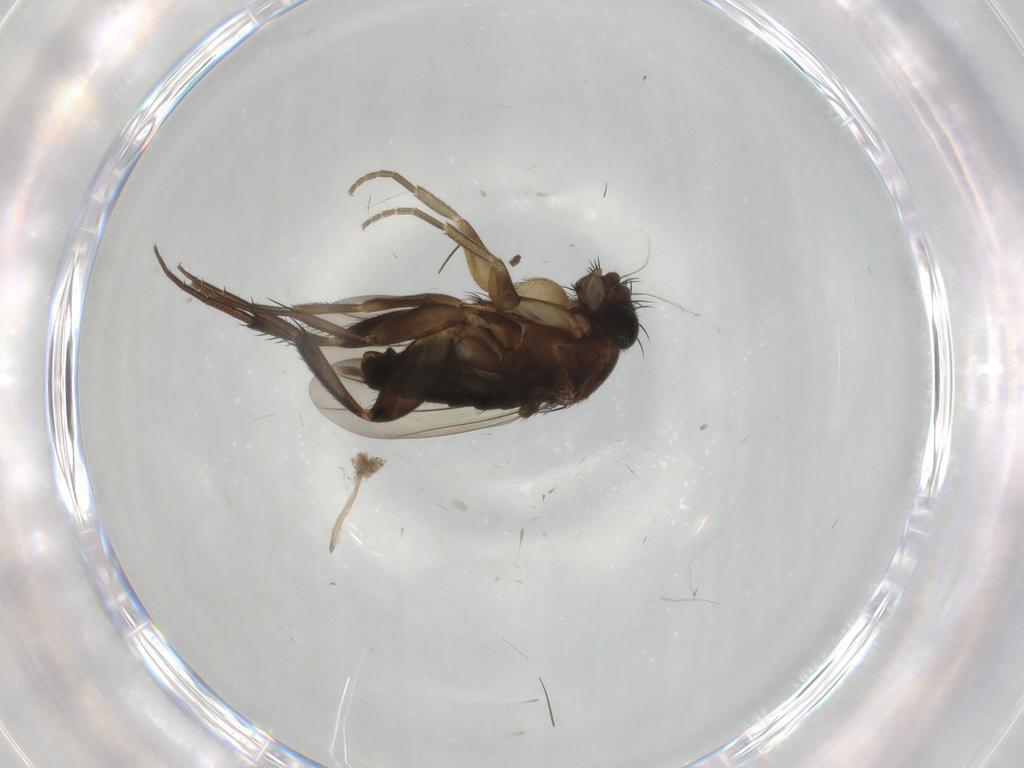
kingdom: Animalia
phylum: Arthropoda
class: Insecta
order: Diptera
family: Phoridae
